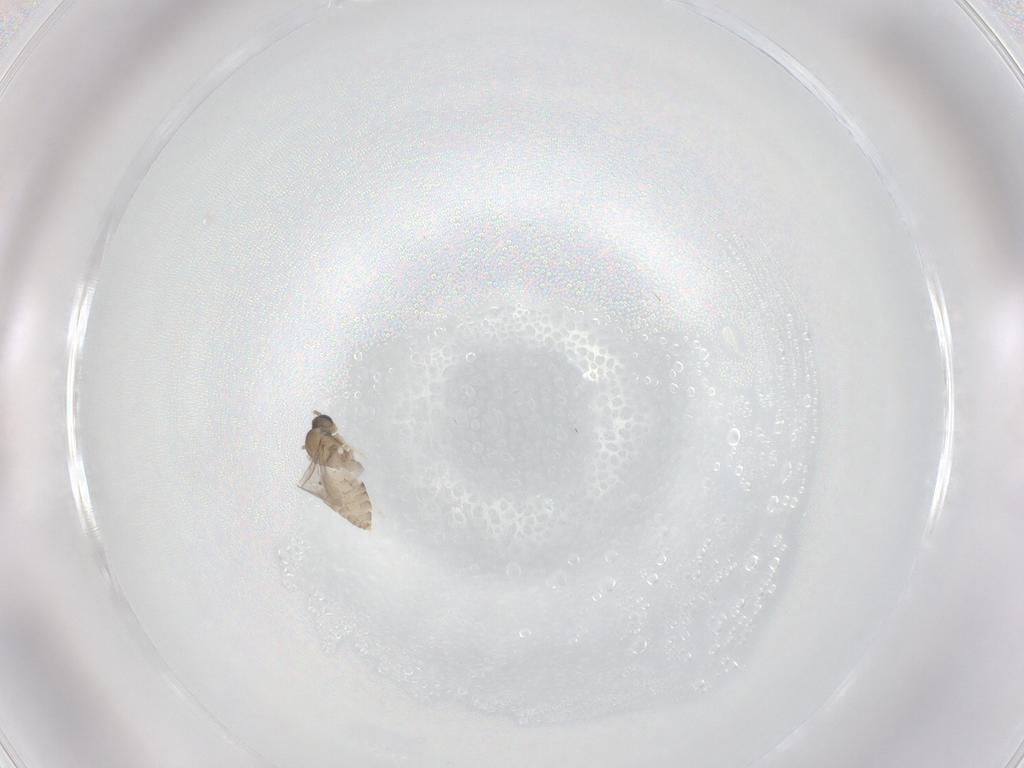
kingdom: Animalia
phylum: Arthropoda
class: Insecta
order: Diptera
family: Cecidomyiidae
